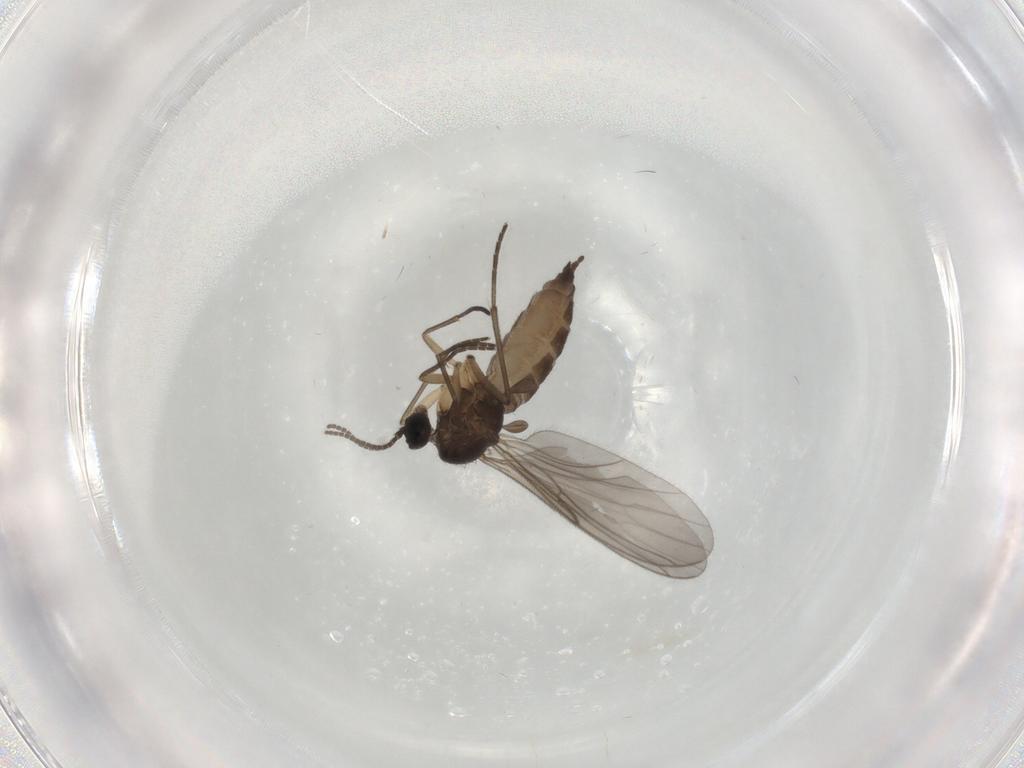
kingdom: Animalia
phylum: Arthropoda
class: Insecta
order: Diptera
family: Sciaridae
